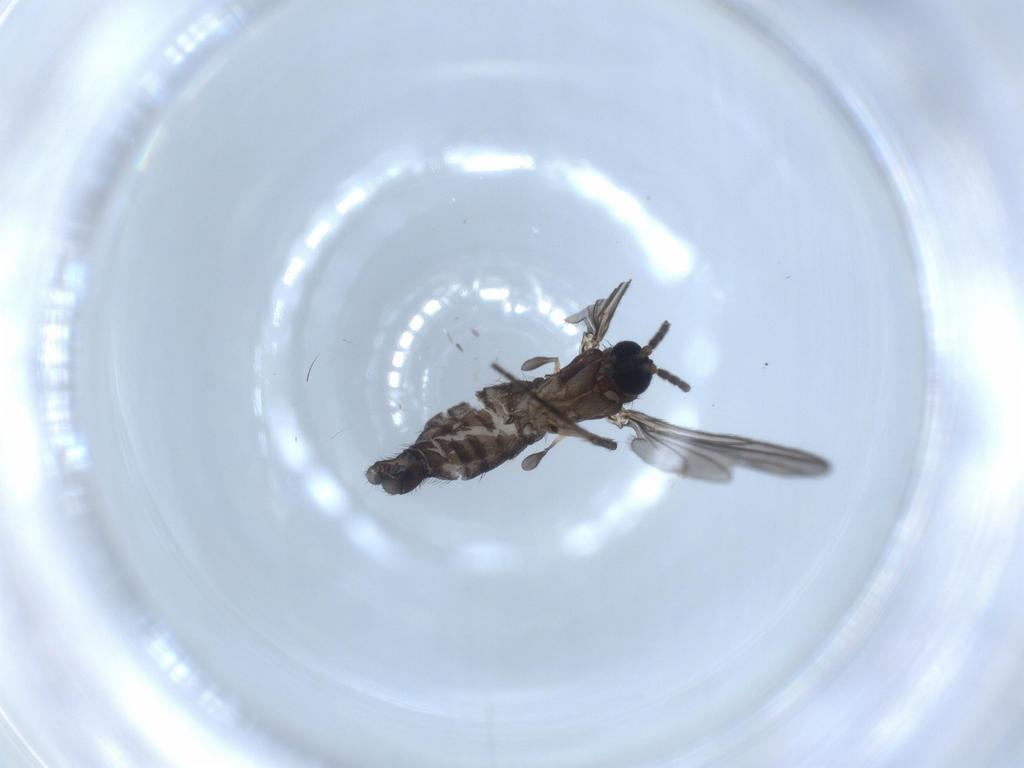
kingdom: Animalia
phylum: Arthropoda
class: Insecta
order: Diptera
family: Sciaridae
